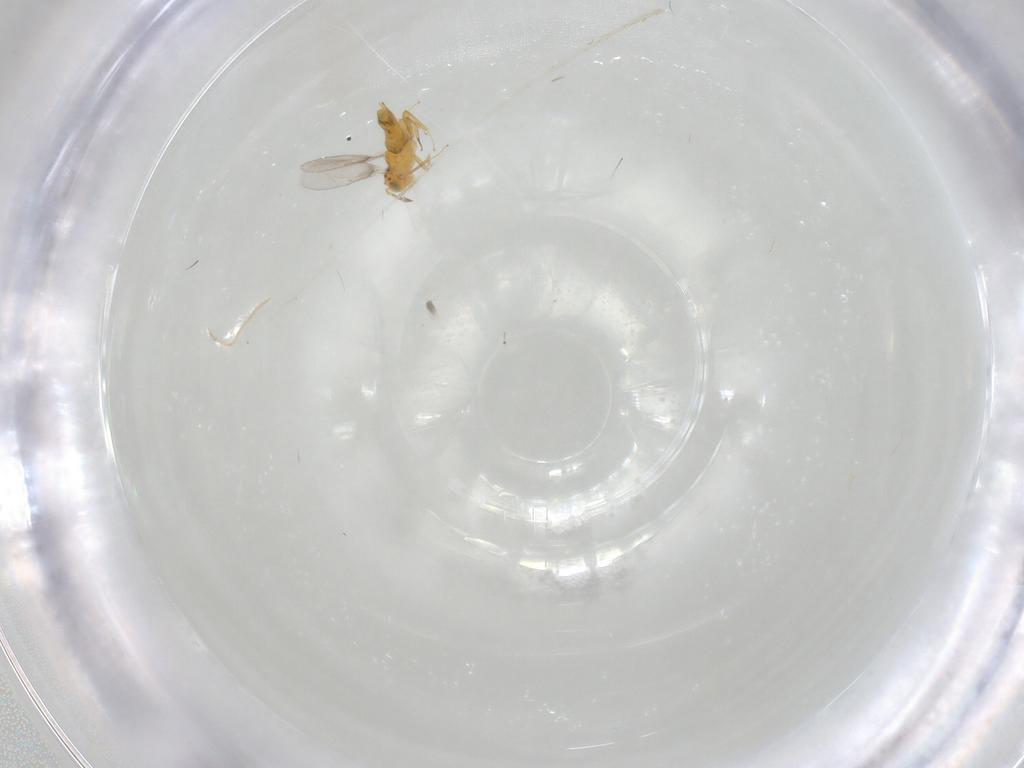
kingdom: Animalia
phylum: Arthropoda
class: Insecta
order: Hymenoptera
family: Aphelinidae
